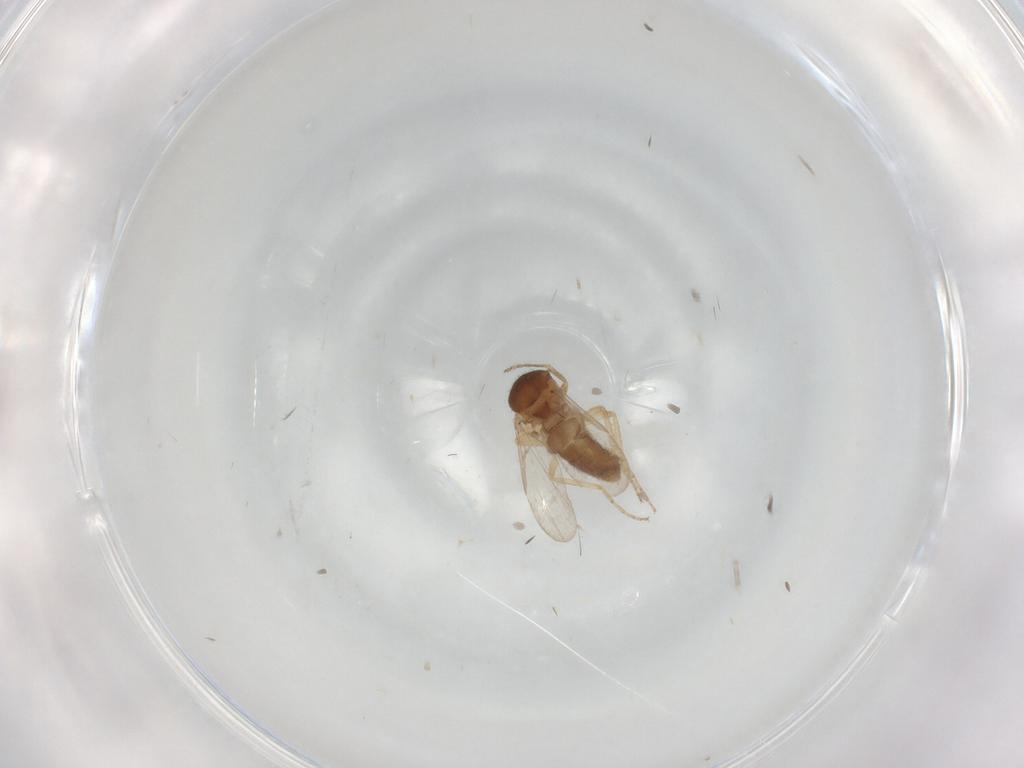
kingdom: Animalia
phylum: Arthropoda
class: Insecta
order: Diptera
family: Ceratopogonidae
